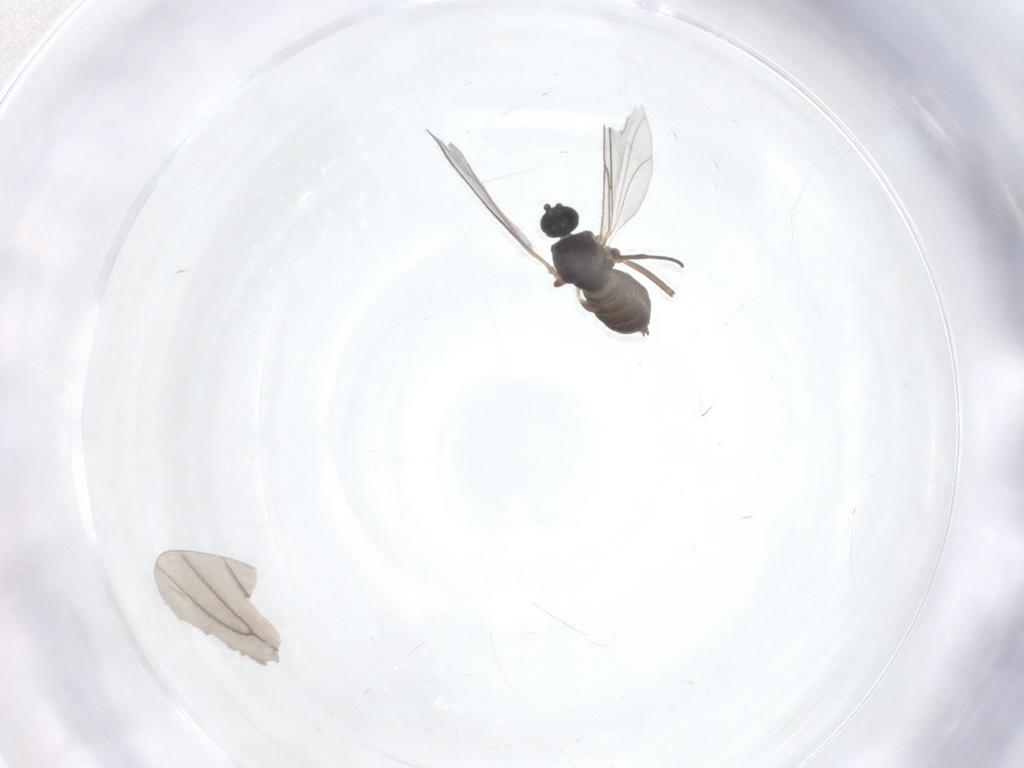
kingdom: Animalia
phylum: Arthropoda
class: Insecta
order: Diptera
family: Sciaridae
